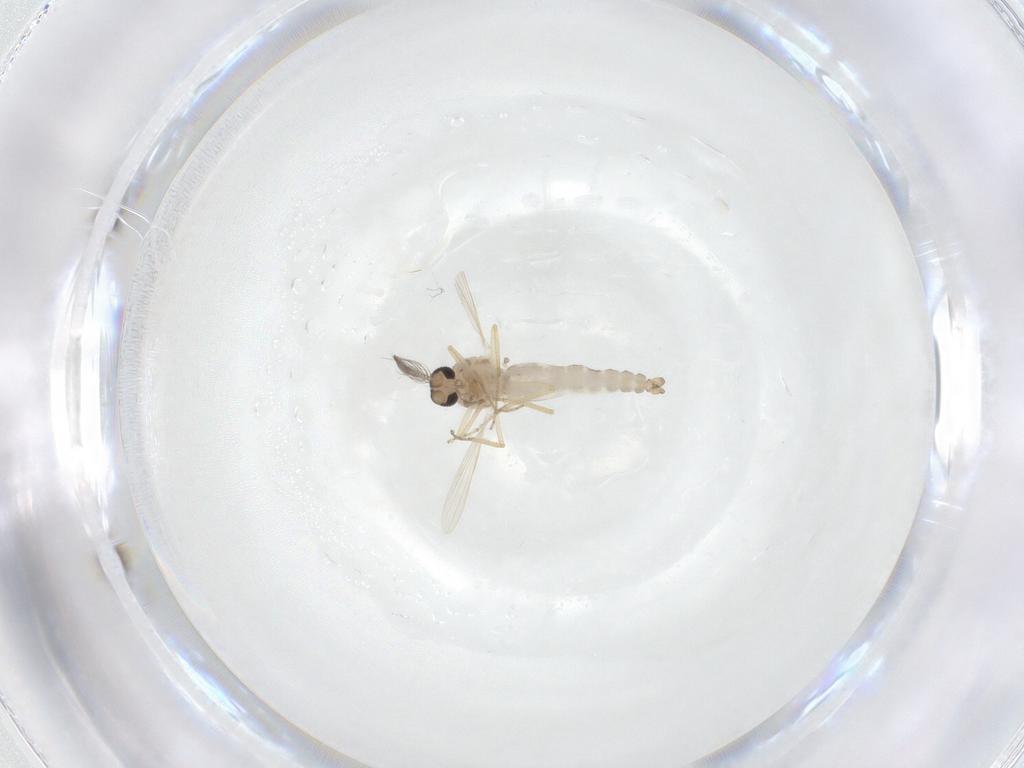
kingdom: Animalia
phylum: Arthropoda
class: Insecta
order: Diptera
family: Ceratopogonidae
